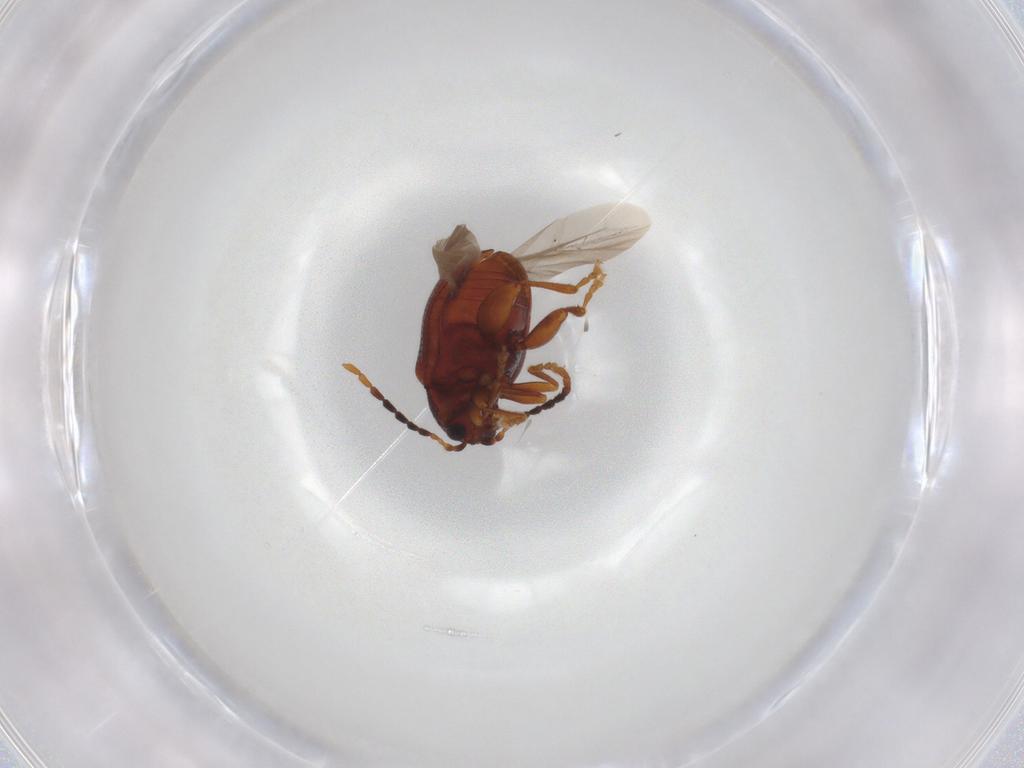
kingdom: Animalia
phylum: Arthropoda
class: Insecta
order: Coleoptera
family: Chrysomelidae
